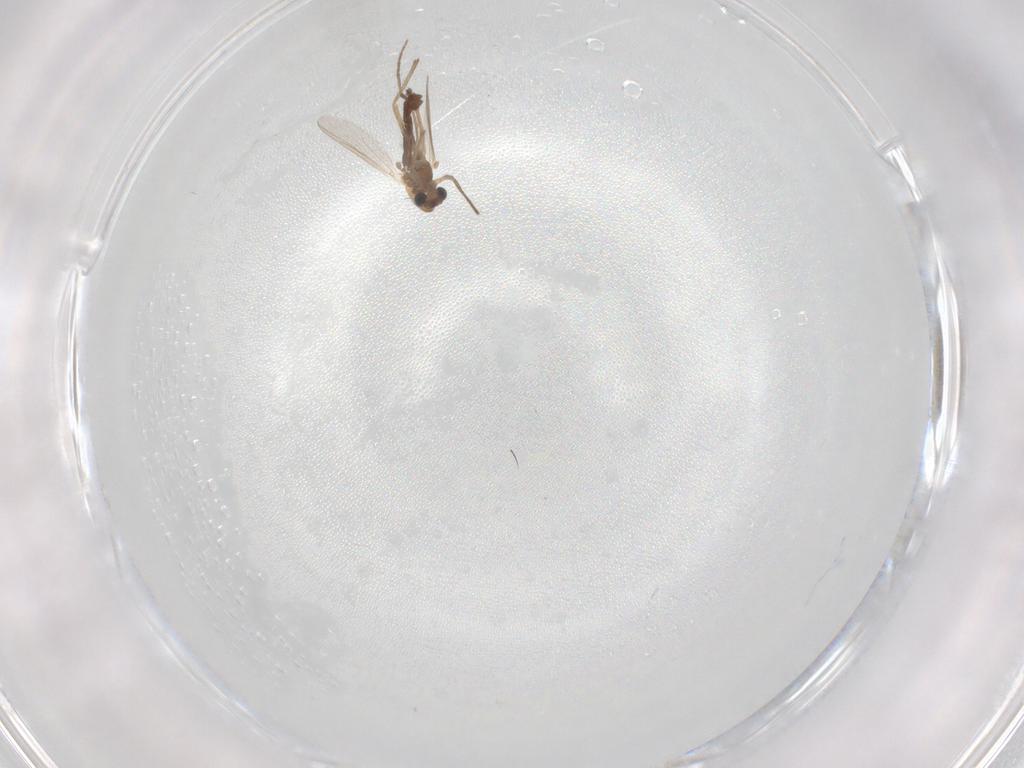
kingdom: Animalia
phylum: Arthropoda
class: Insecta
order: Diptera
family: Chironomidae
